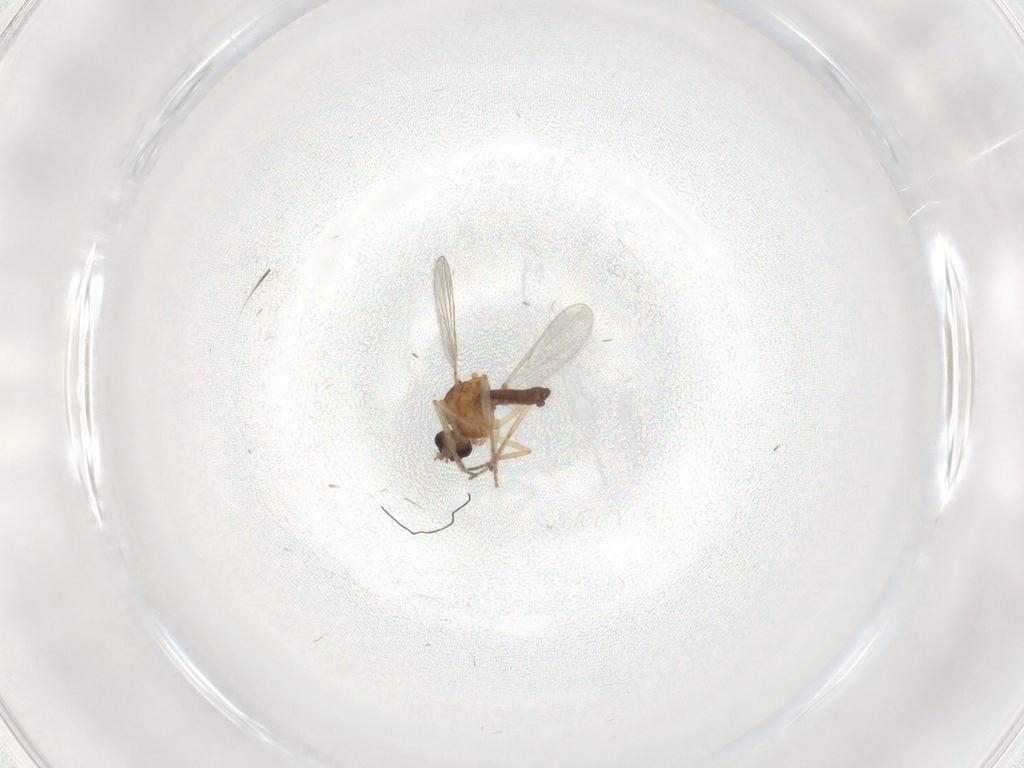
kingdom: Animalia
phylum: Arthropoda
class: Insecta
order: Diptera
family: Ceratopogonidae
